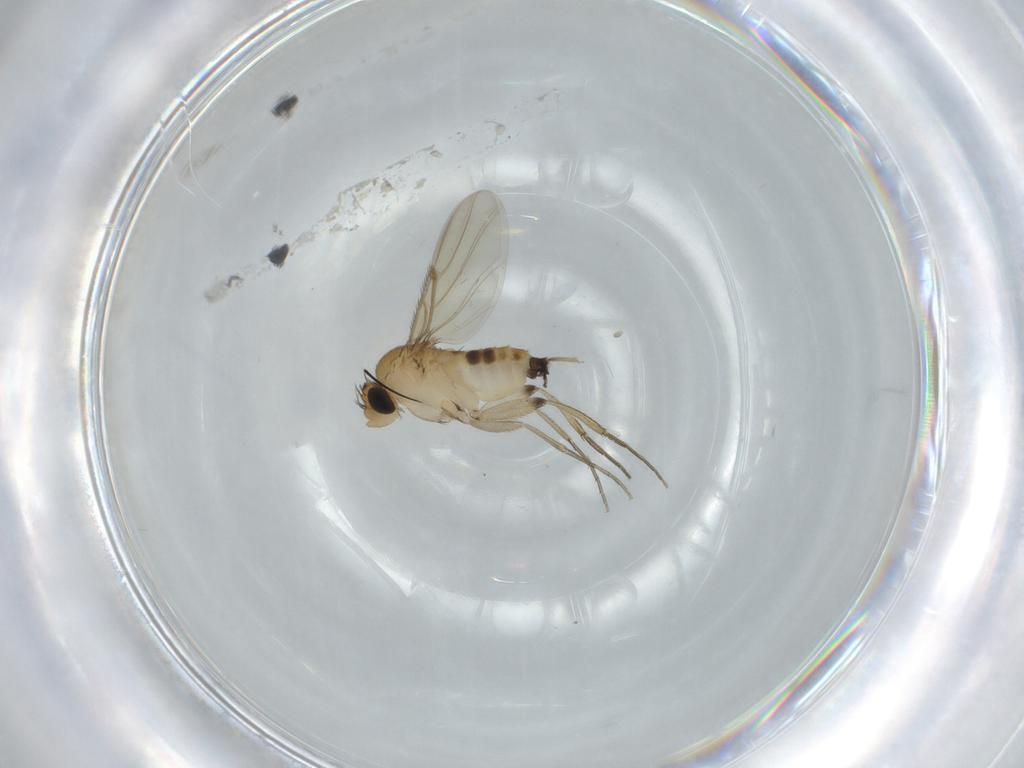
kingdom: Animalia
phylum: Arthropoda
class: Insecta
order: Diptera
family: Phoridae
